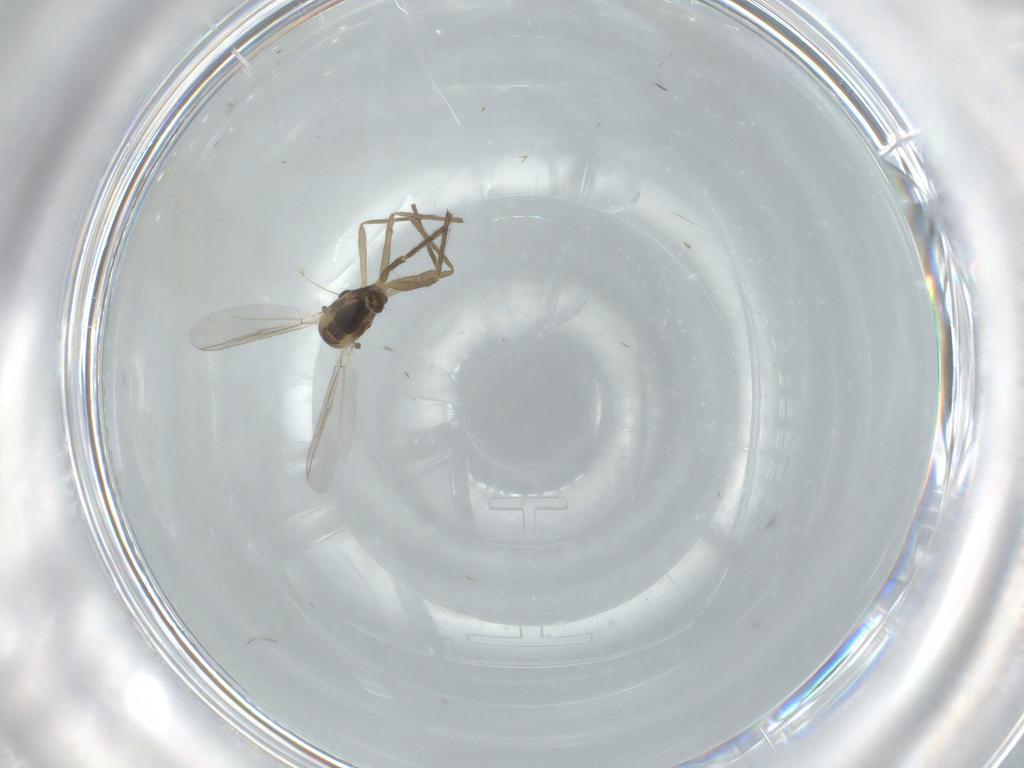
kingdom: Animalia
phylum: Arthropoda
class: Insecta
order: Diptera
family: Chironomidae
